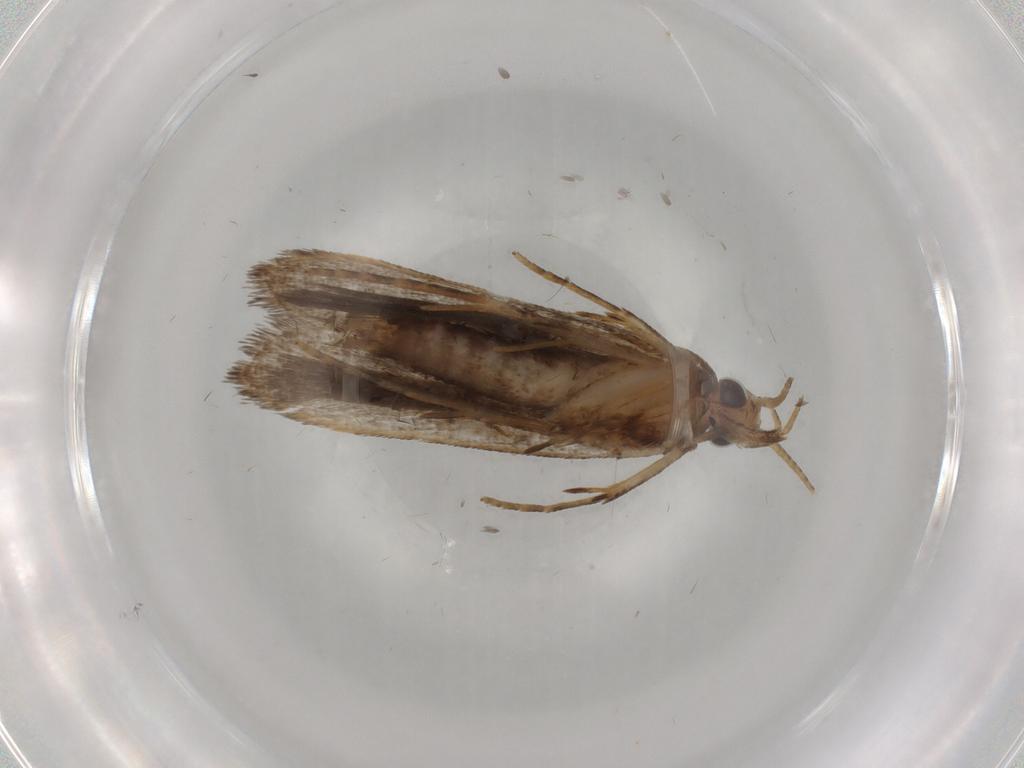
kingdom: Animalia
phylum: Arthropoda
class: Insecta
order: Lepidoptera
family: Gelechiidae
